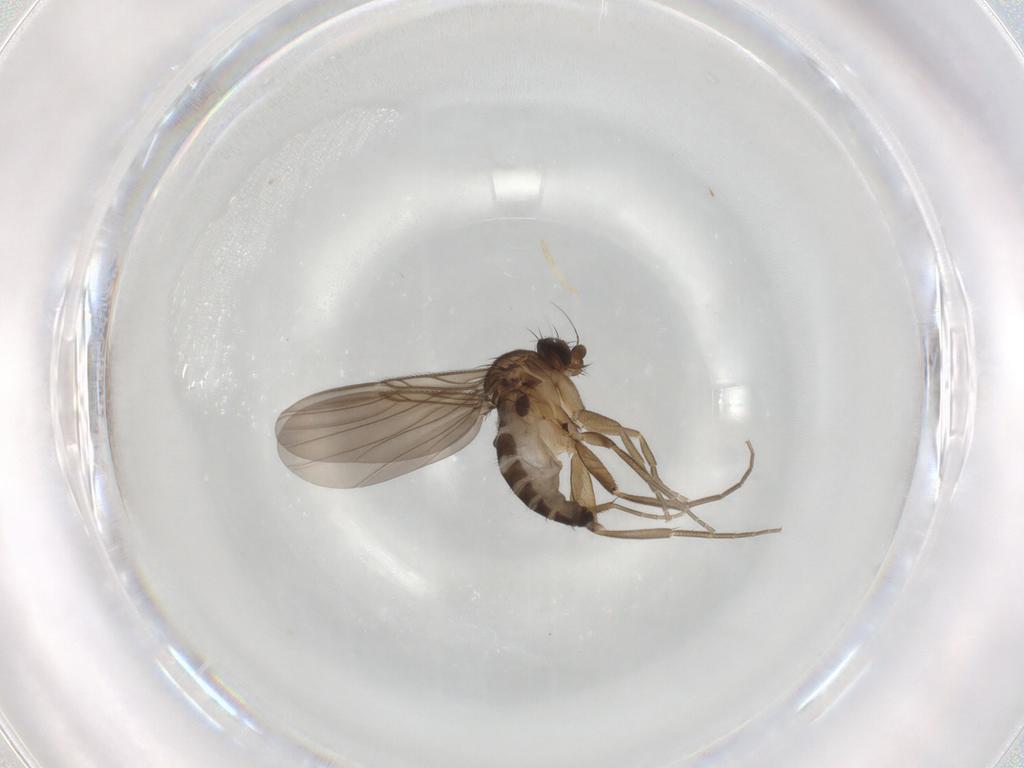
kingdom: Animalia
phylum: Arthropoda
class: Insecta
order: Diptera
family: Phoridae
